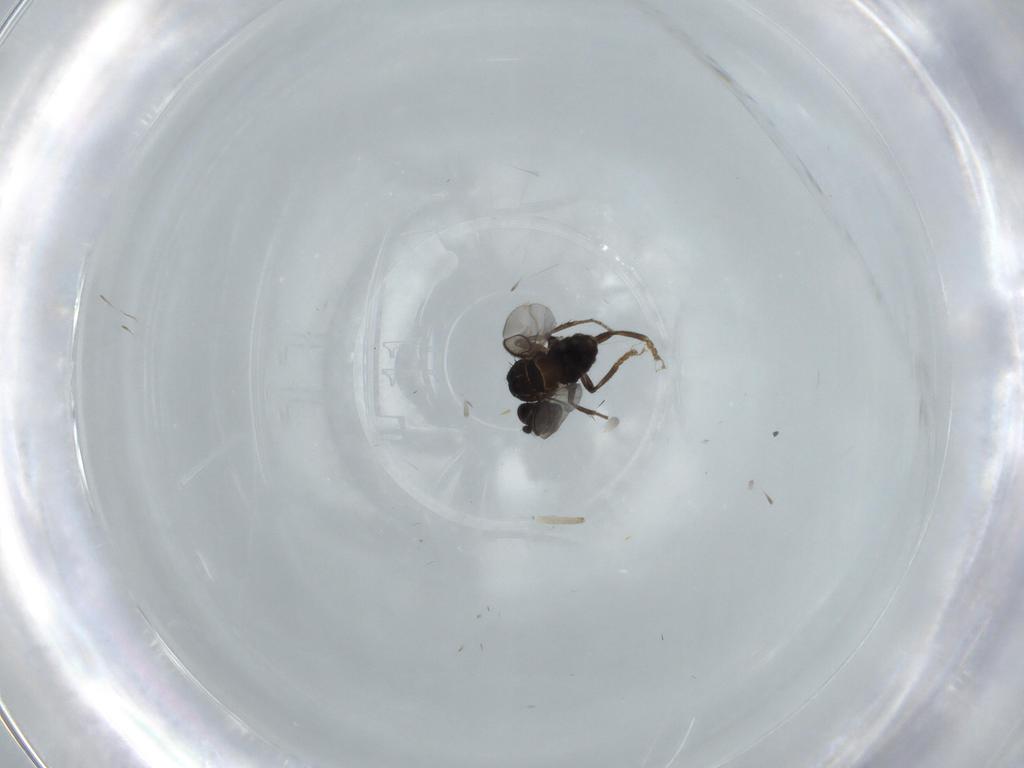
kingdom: Animalia
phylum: Arthropoda
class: Insecta
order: Diptera
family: Sphaeroceridae
